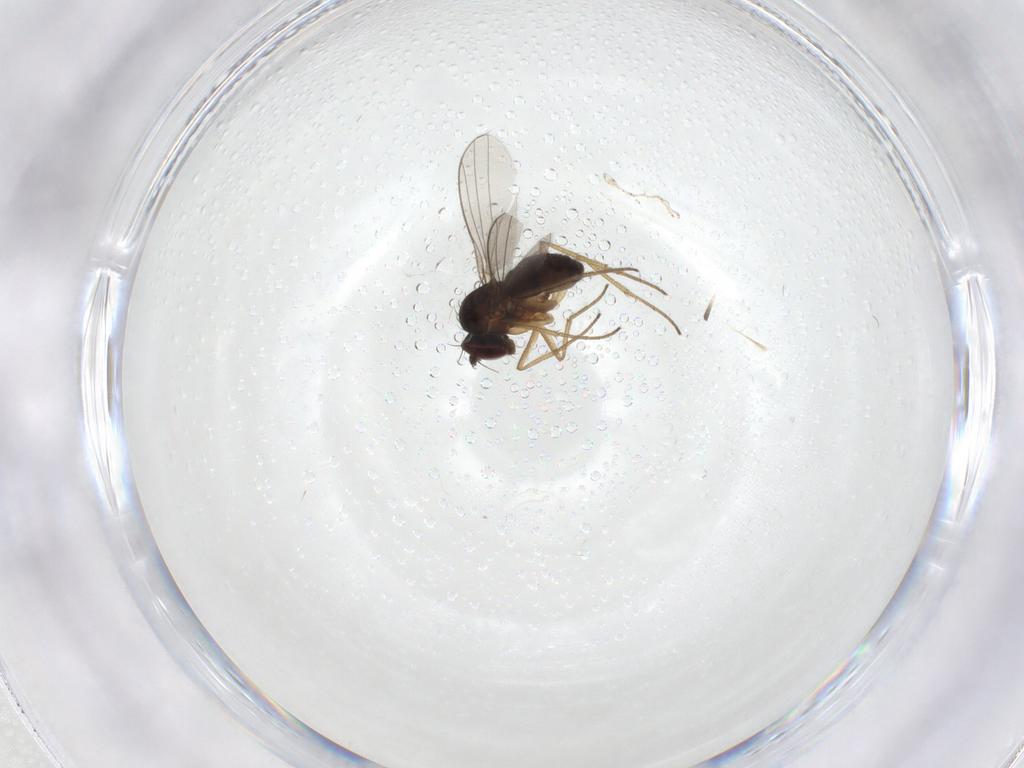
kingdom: Animalia
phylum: Arthropoda
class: Insecta
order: Diptera
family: Dolichopodidae
